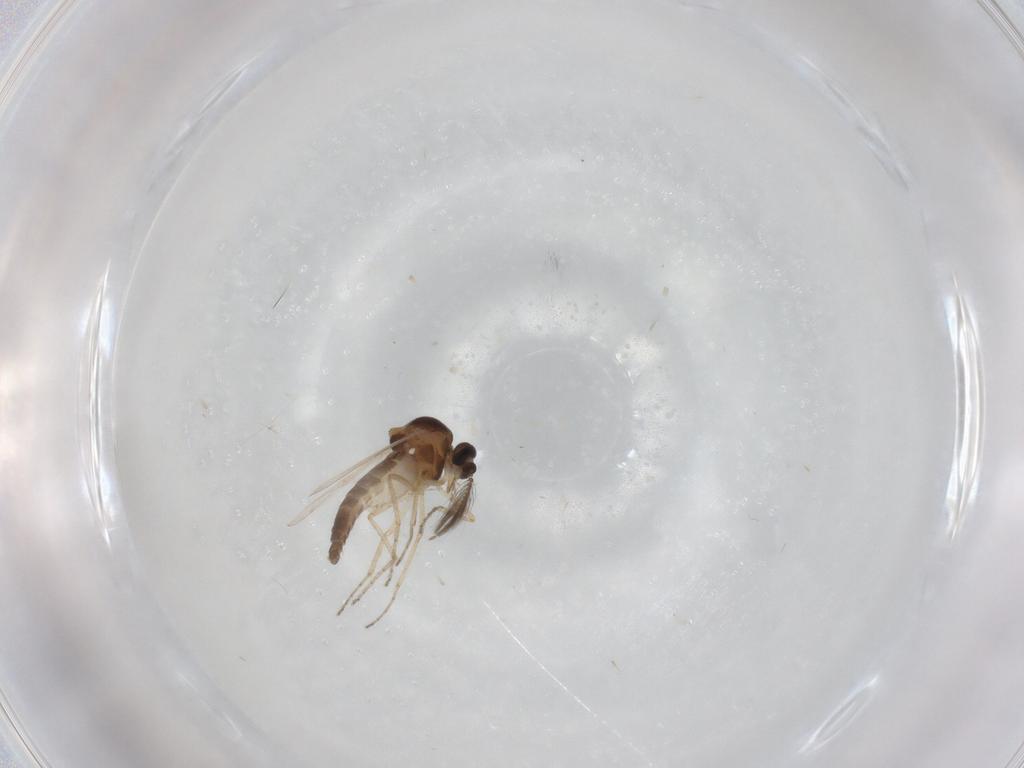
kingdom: Animalia
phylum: Arthropoda
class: Insecta
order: Diptera
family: Ceratopogonidae
